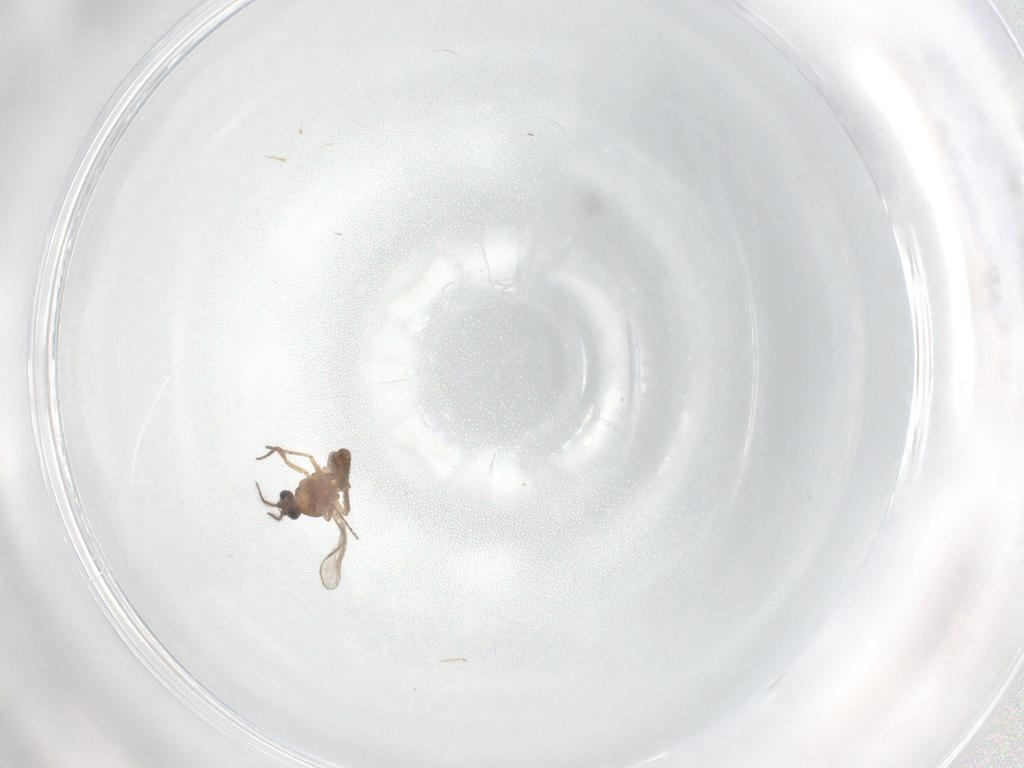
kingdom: Animalia
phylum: Arthropoda
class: Insecta
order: Diptera
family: Chironomidae
